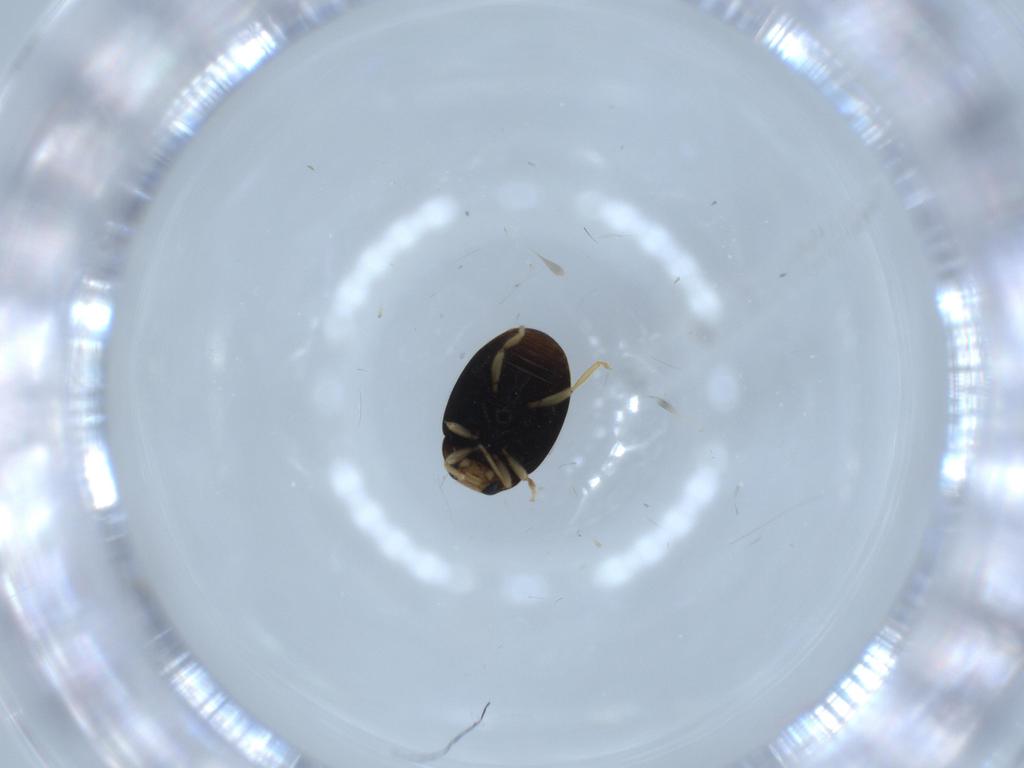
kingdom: Animalia
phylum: Arthropoda
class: Insecta
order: Coleoptera
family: Coccinellidae
